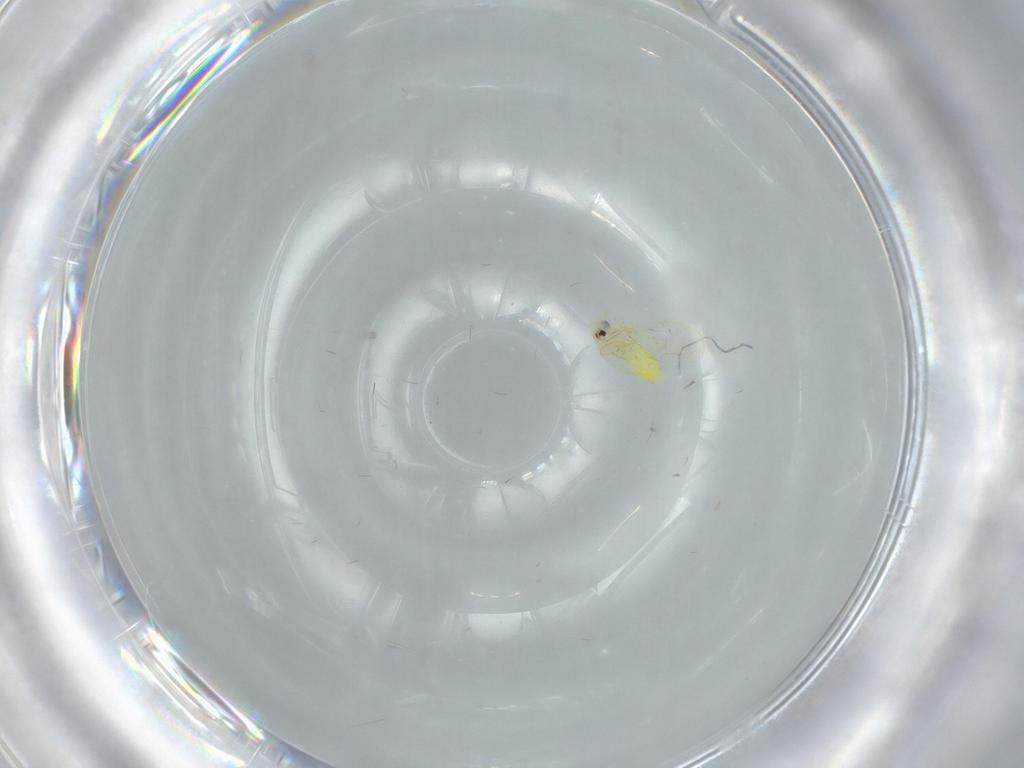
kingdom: Animalia
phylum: Arthropoda
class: Insecta
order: Hemiptera
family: Aleyrodidae
